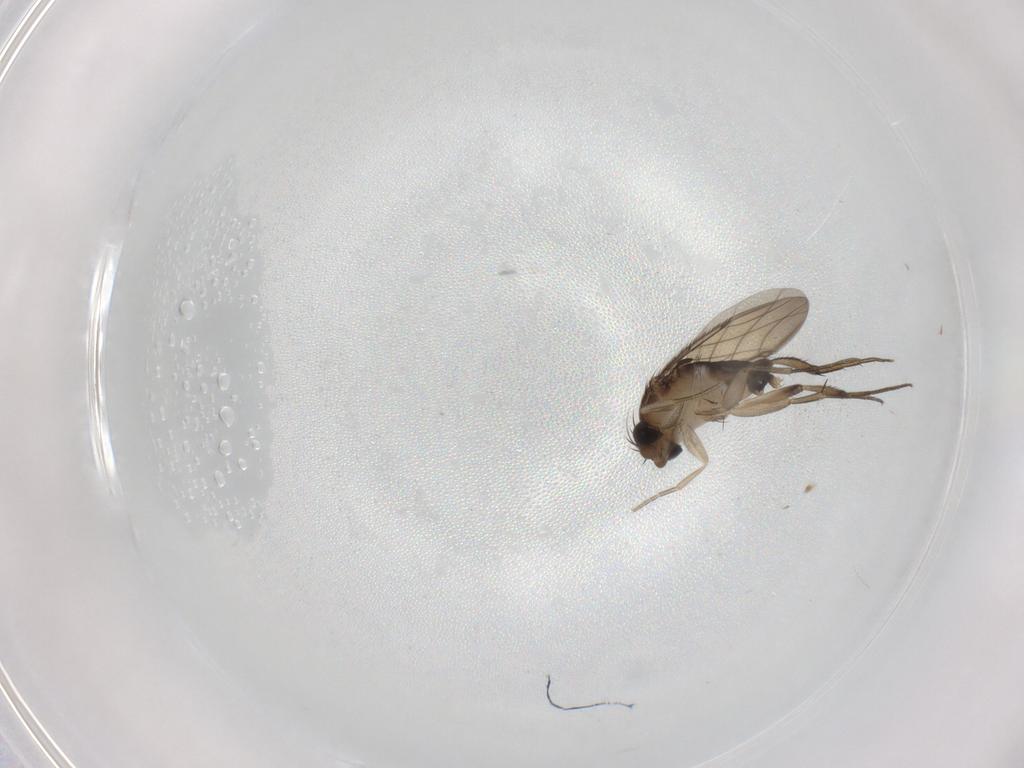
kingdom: Animalia
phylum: Arthropoda
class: Insecta
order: Diptera
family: Phoridae
